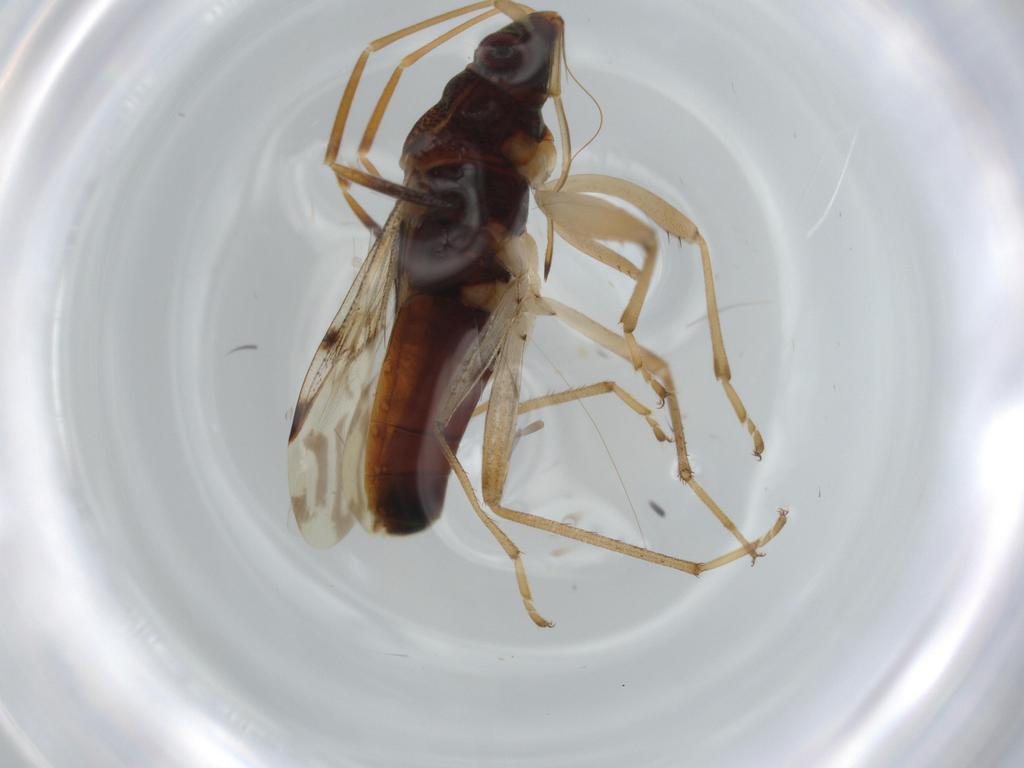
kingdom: Animalia
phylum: Arthropoda
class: Insecta
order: Hemiptera
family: Rhyparochromidae
